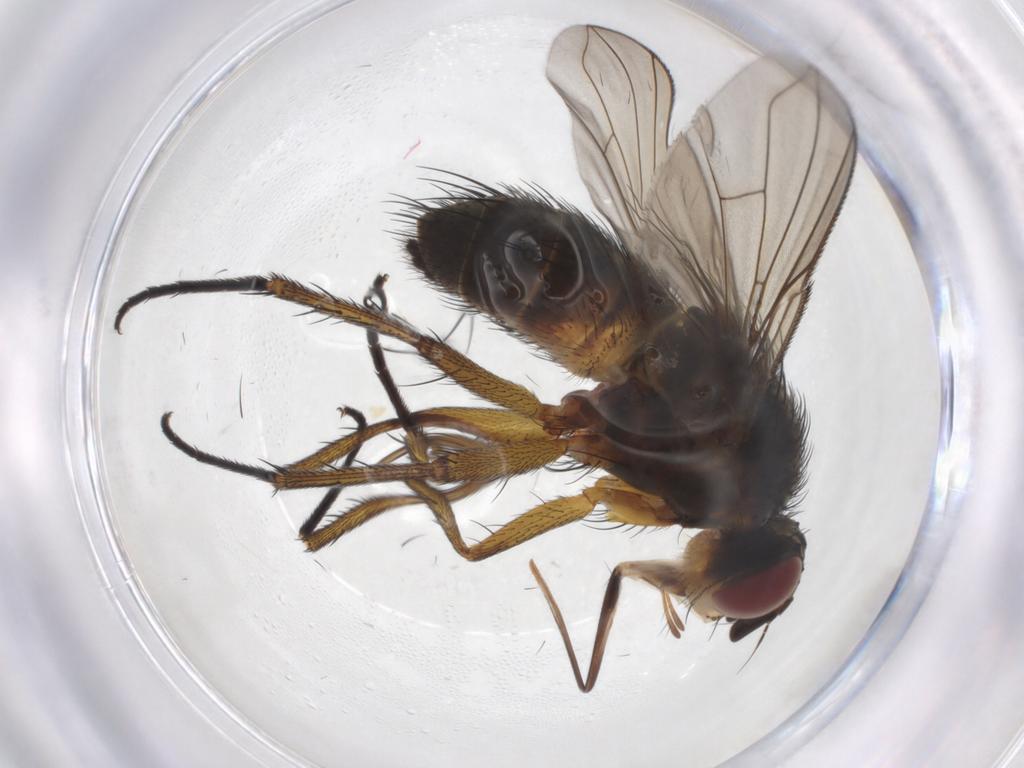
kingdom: Animalia
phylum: Arthropoda
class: Insecta
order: Diptera
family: Tachinidae
